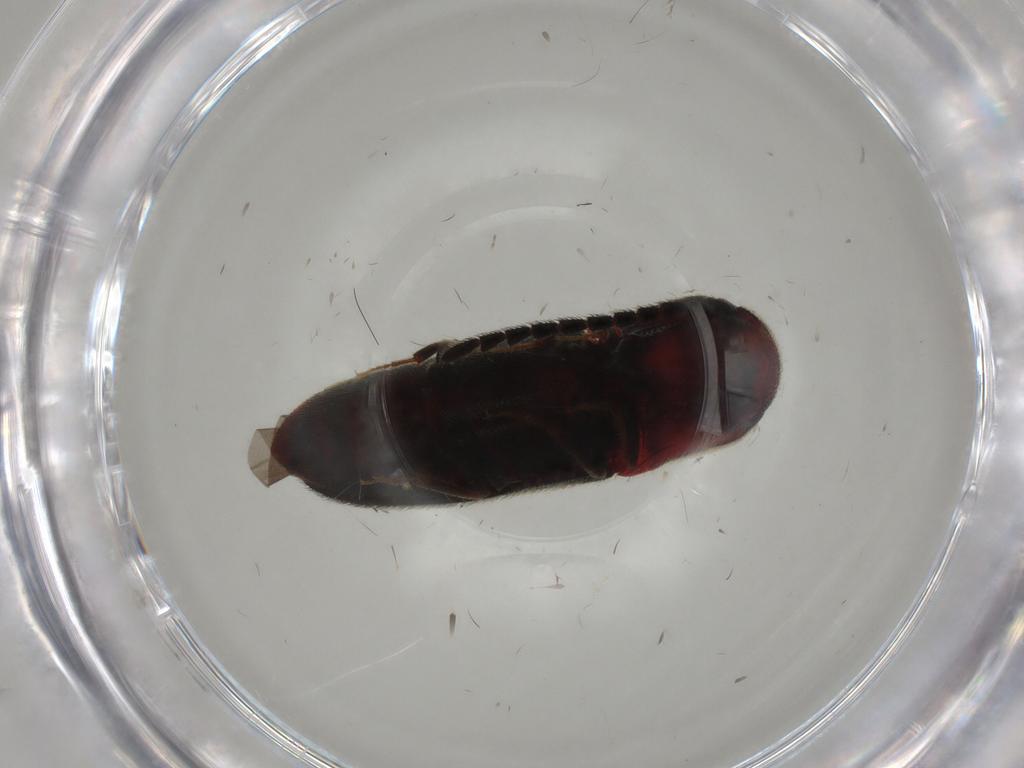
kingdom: Animalia
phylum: Arthropoda
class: Insecta
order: Coleoptera
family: Eucnemidae
